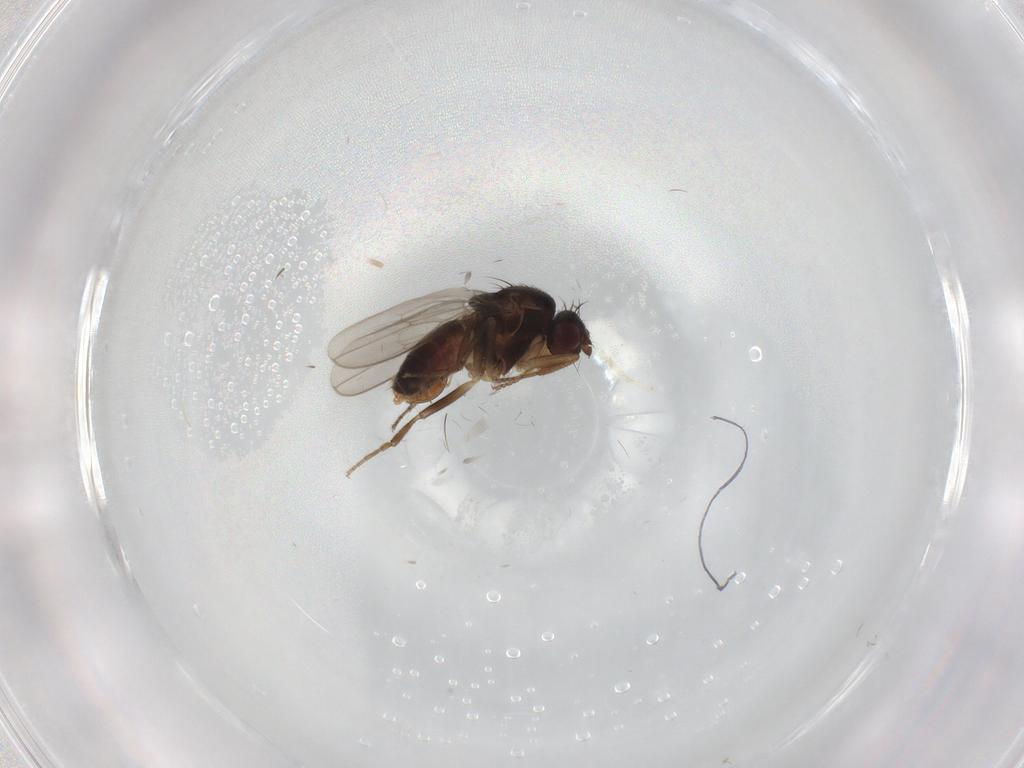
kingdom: Animalia
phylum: Arthropoda
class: Insecta
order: Diptera
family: Sphaeroceridae
